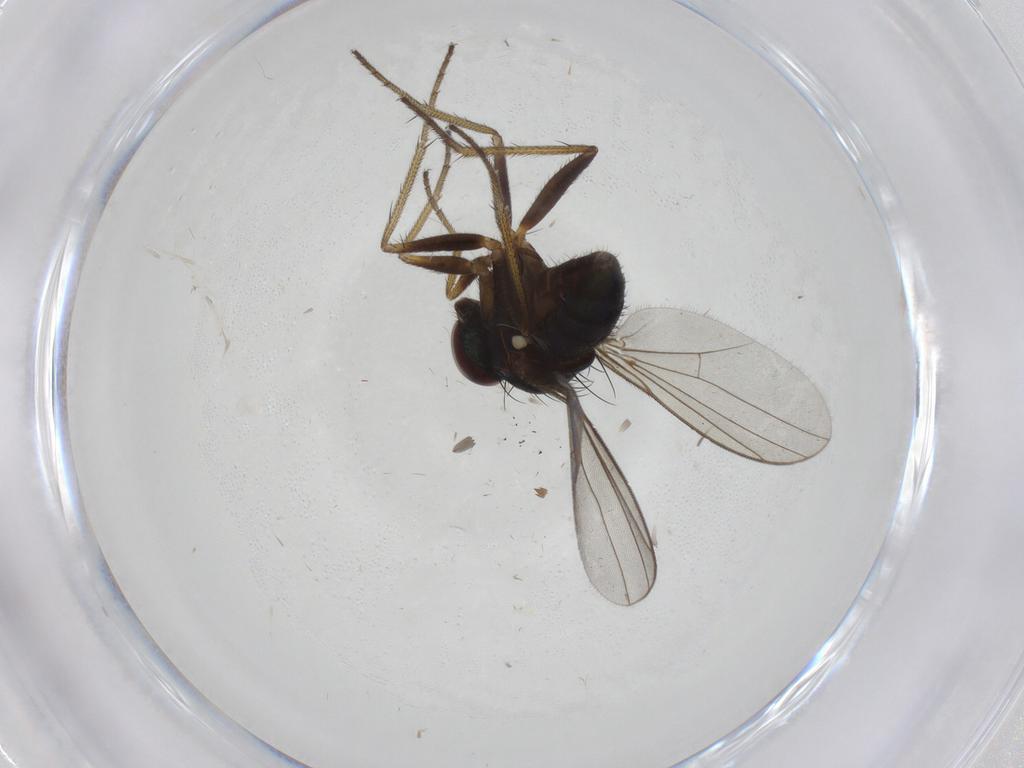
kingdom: Animalia
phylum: Arthropoda
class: Insecta
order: Diptera
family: Dolichopodidae
